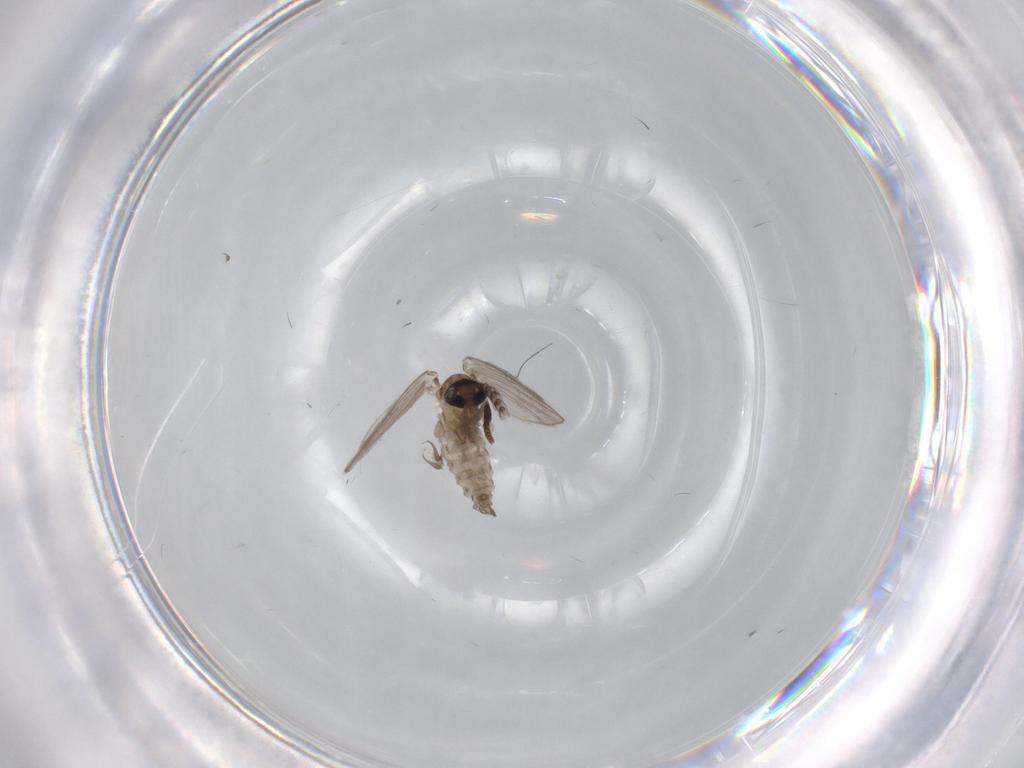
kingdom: Animalia
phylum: Arthropoda
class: Insecta
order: Diptera
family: Psychodidae
